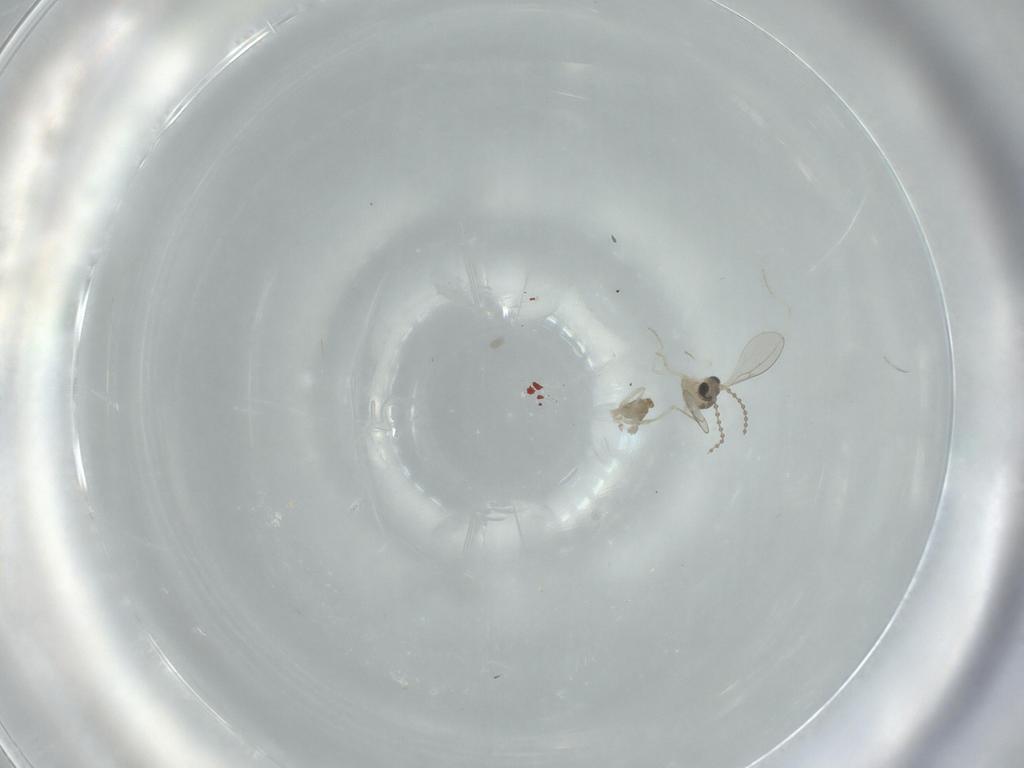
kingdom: Animalia
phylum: Arthropoda
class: Insecta
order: Diptera
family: Cecidomyiidae
